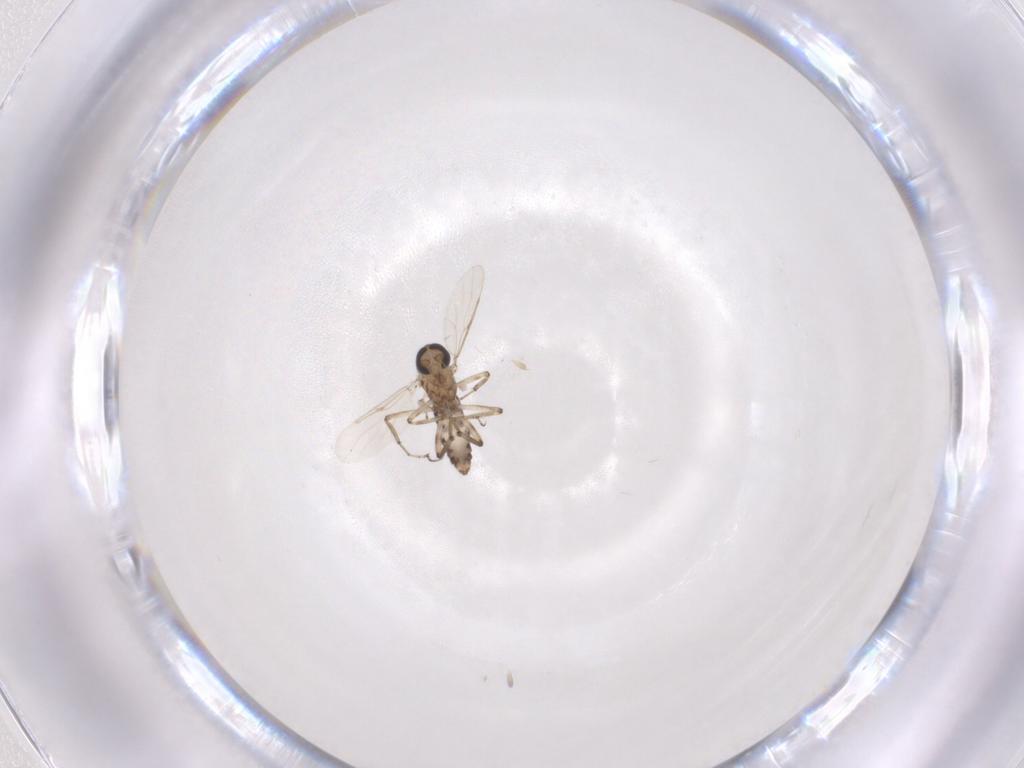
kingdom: Animalia
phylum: Arthropoda
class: Insecta
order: Diptera
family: Ceratopogonidae
